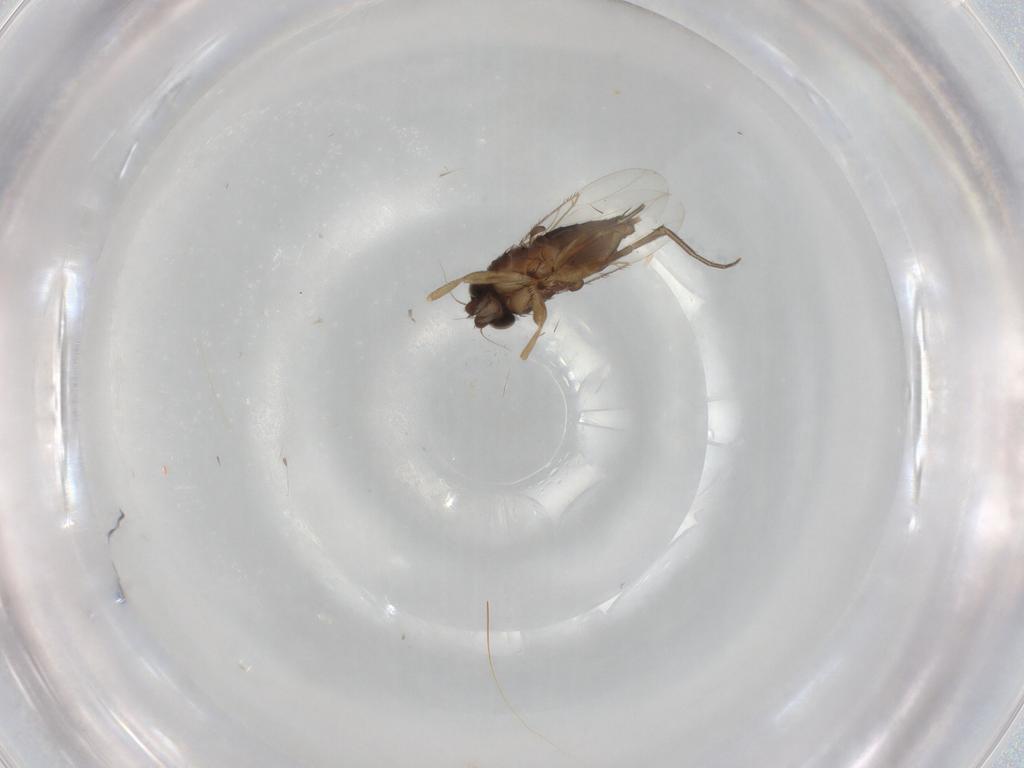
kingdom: Animalia
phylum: Arthropoda
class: Insecta
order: Diptera
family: Phoridae
